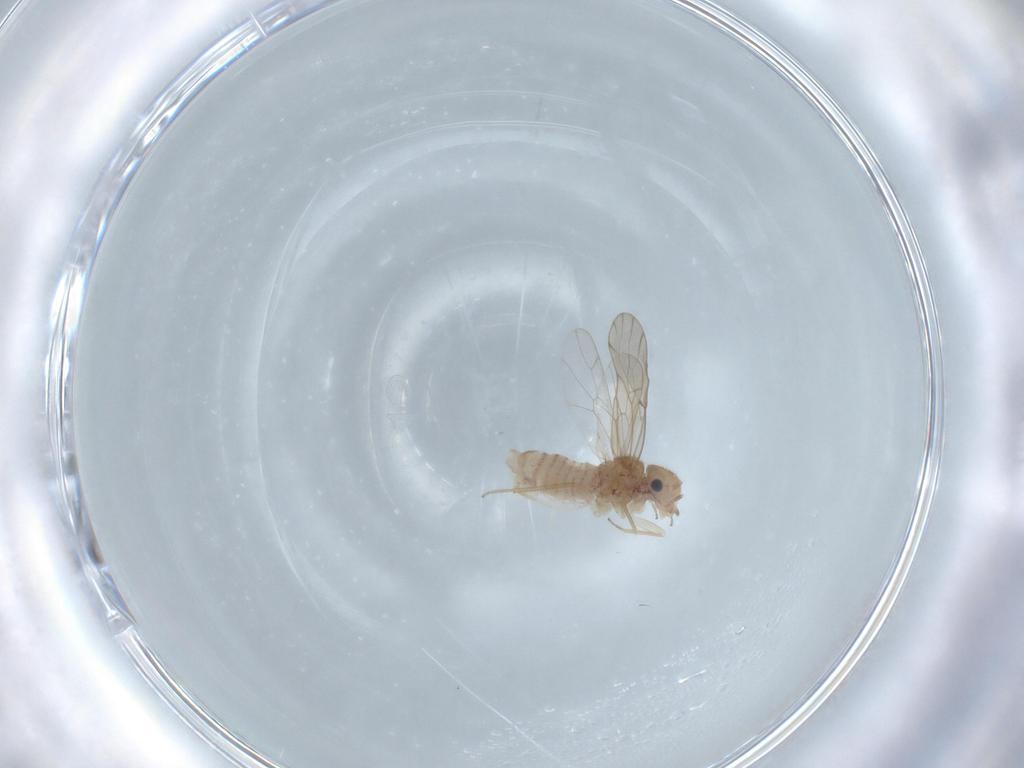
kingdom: Animalia
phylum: Arthropoda
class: Insecta
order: Psocodea
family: Ectopsocidae
